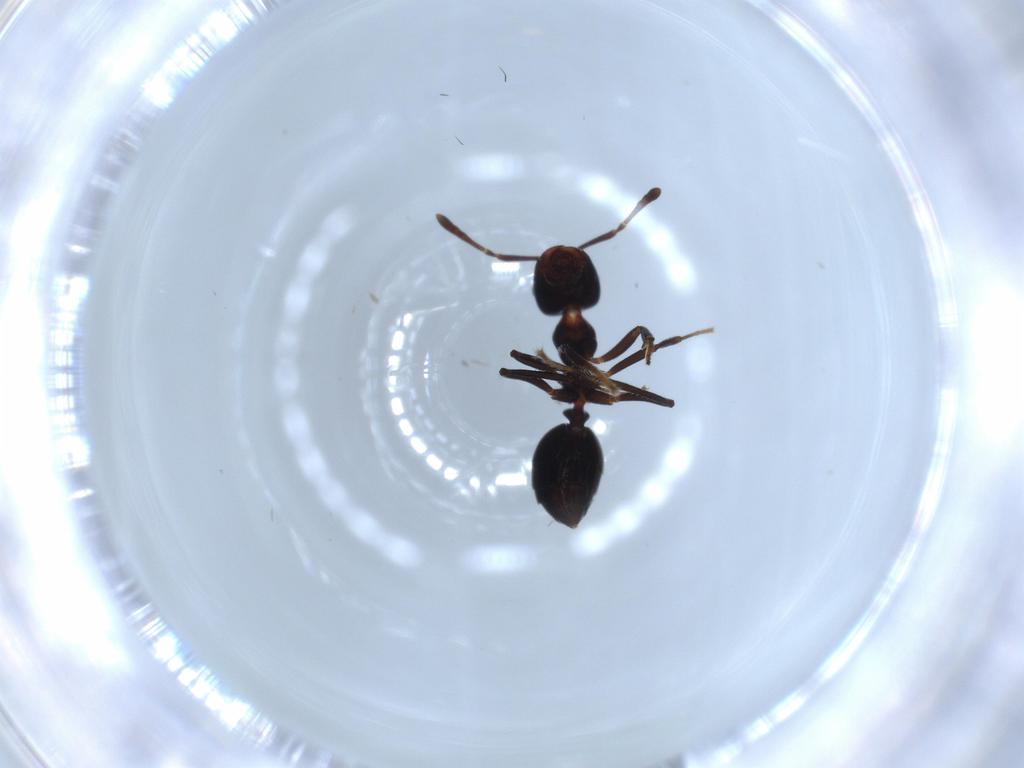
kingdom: Animalia
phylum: Arthropoda
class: Insecta
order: Hymenoptera
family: Formicidae
